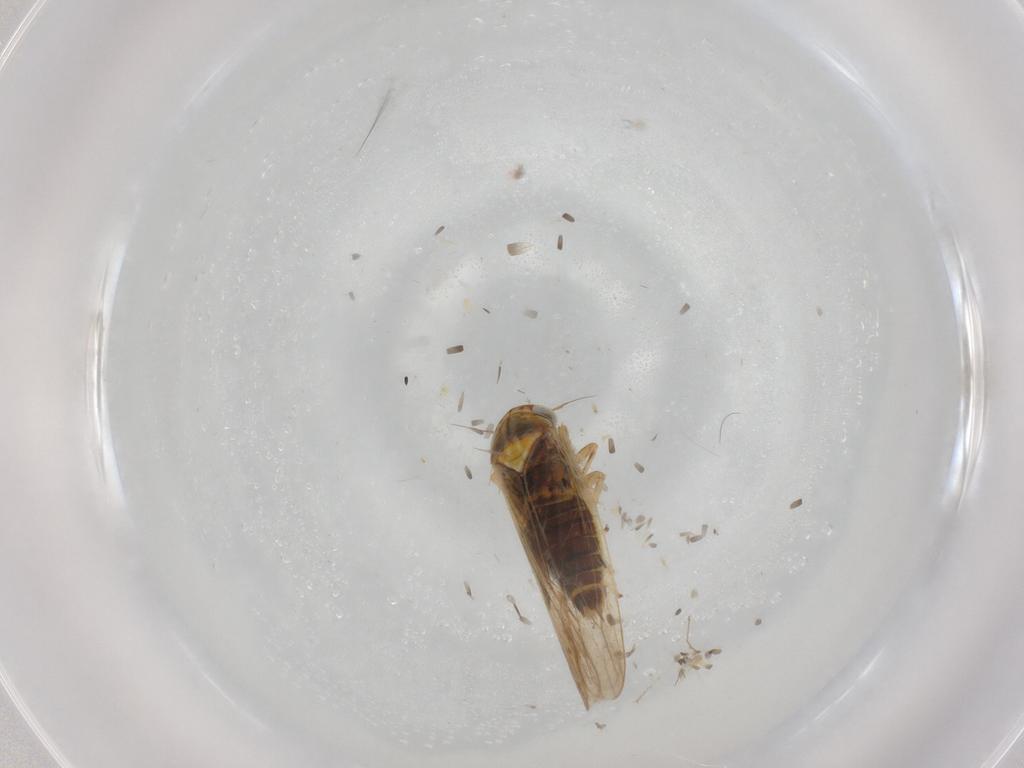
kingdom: Animalia
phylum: Arthropoda
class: Insecta
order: Hemiptera
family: Cicadellidae
